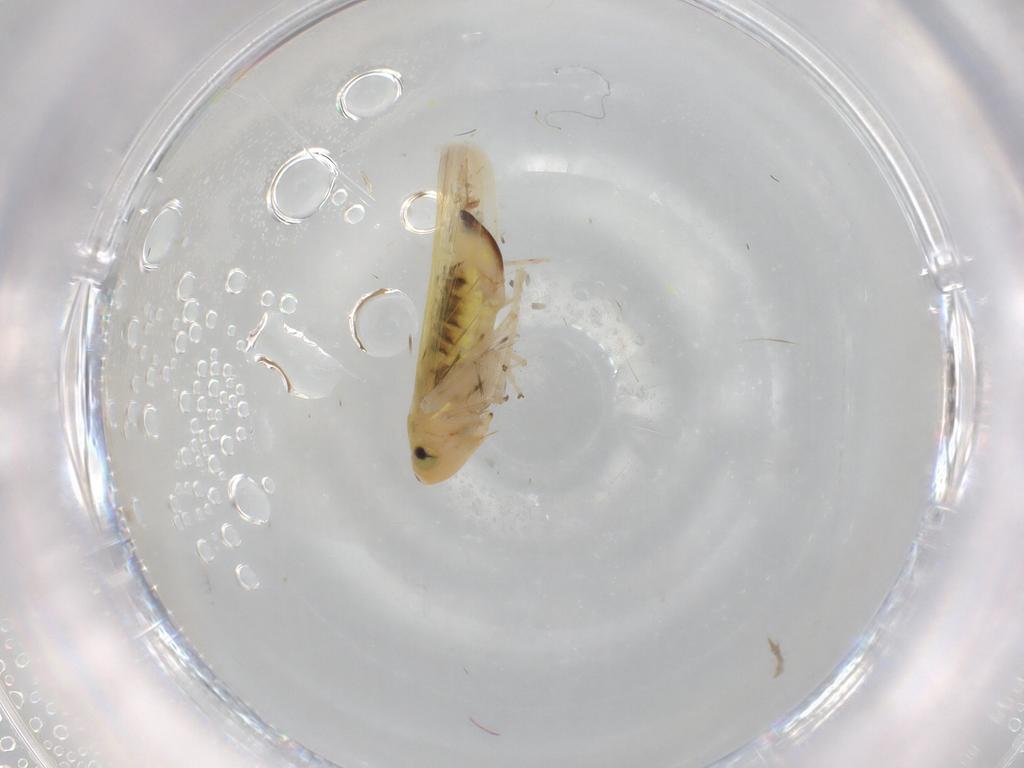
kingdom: Animalia
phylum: Arthropoda
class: Insecta
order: Hemiptera
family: Cicadellidae
